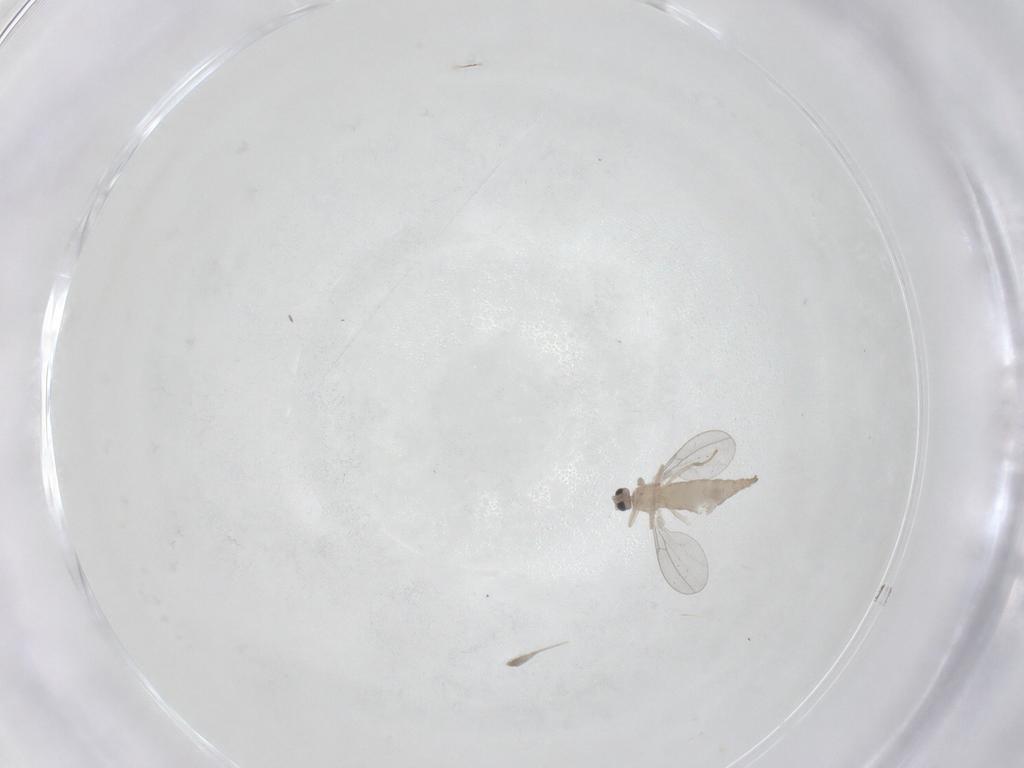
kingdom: Animalia
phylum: Arthropoda
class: Insecta
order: Diptera
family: Cecidomyiidae
